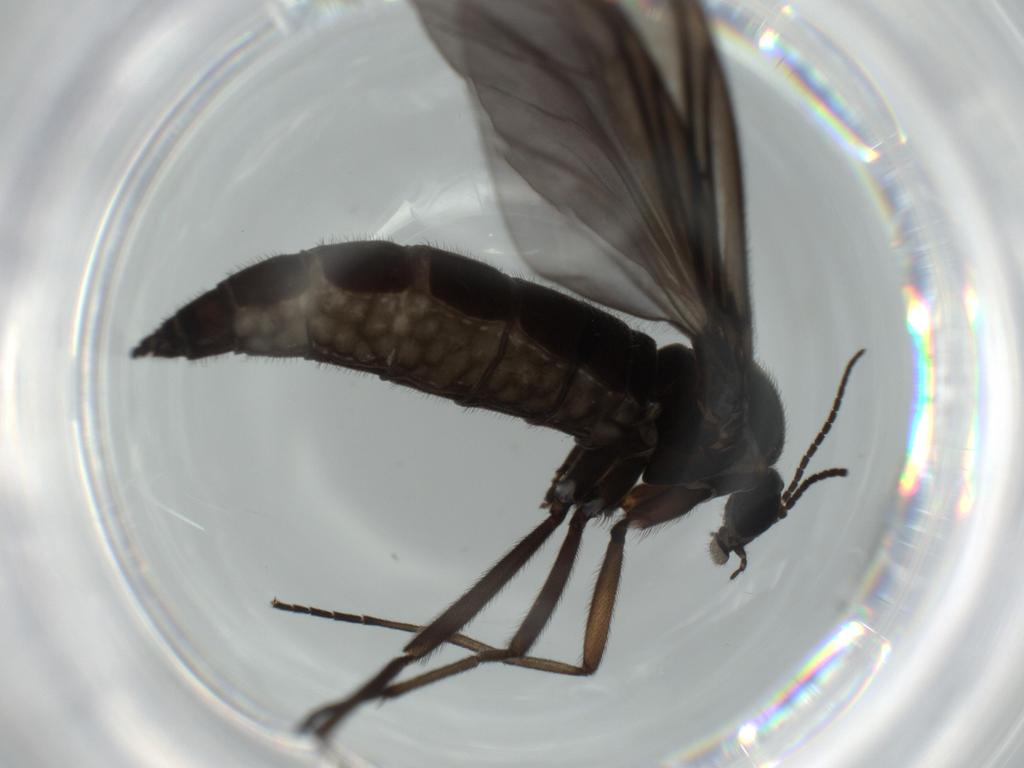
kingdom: Animalia
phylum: Arthropoda
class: Insecta
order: Diptera
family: Sciaridae
